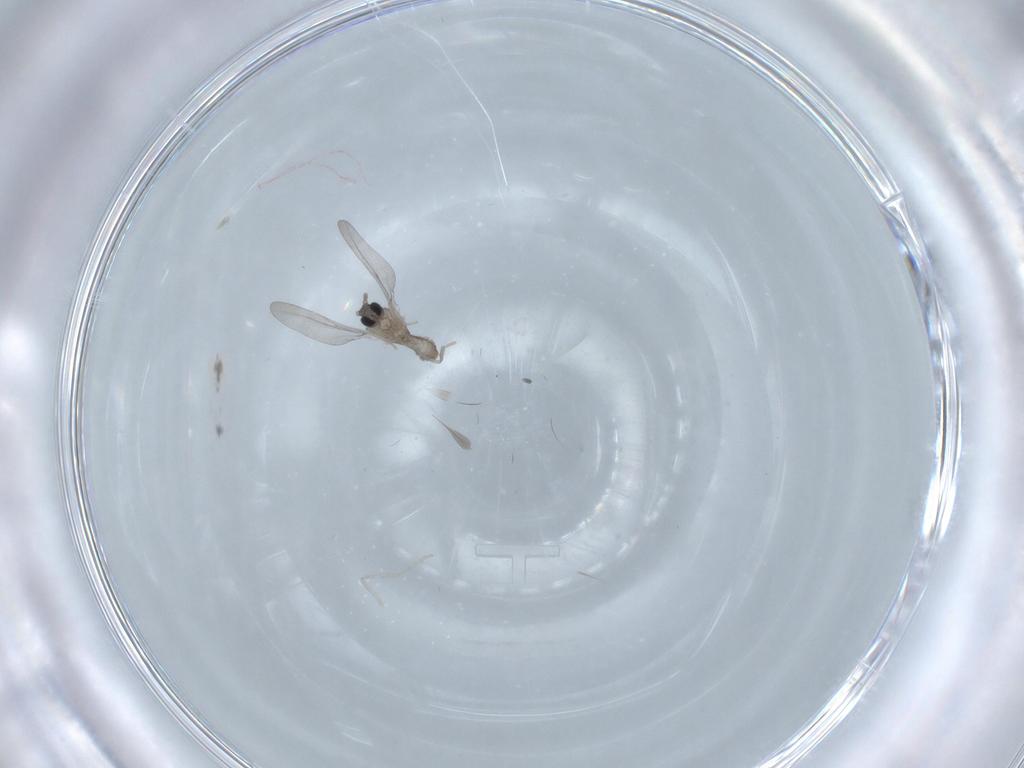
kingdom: Animalia
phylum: Arthropoda
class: Insecta
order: Diptera
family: Cecidomyiidae
